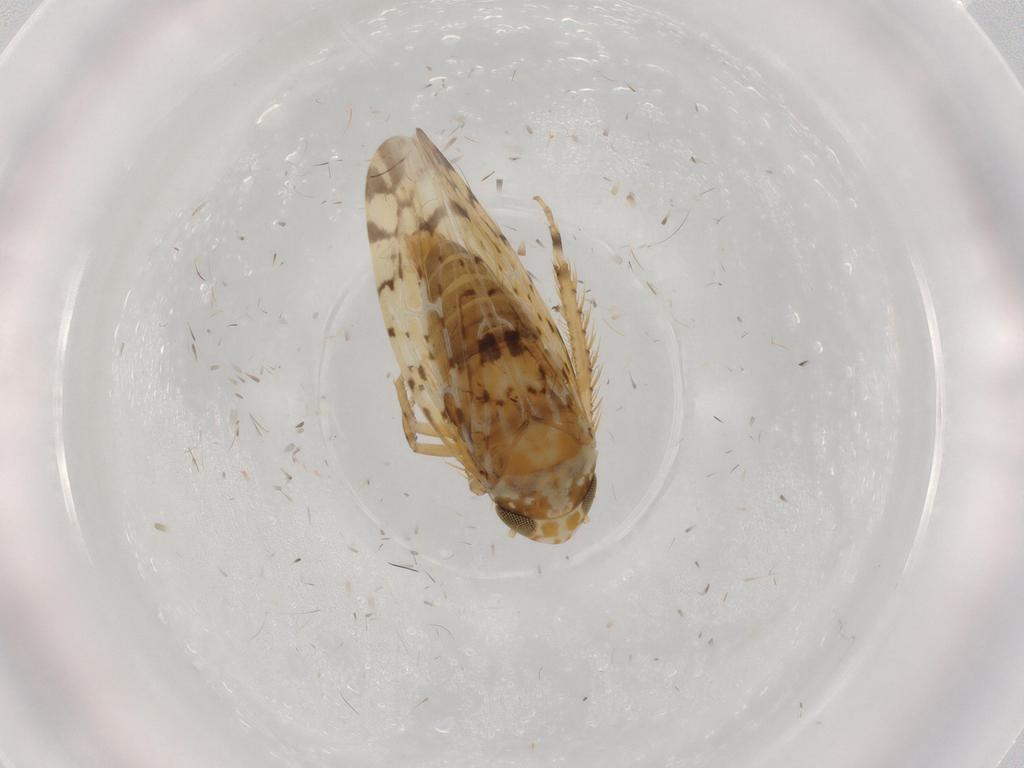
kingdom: Animalia
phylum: Arthropoda
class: Insecta
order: Hemiptera
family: Cicadellidae
